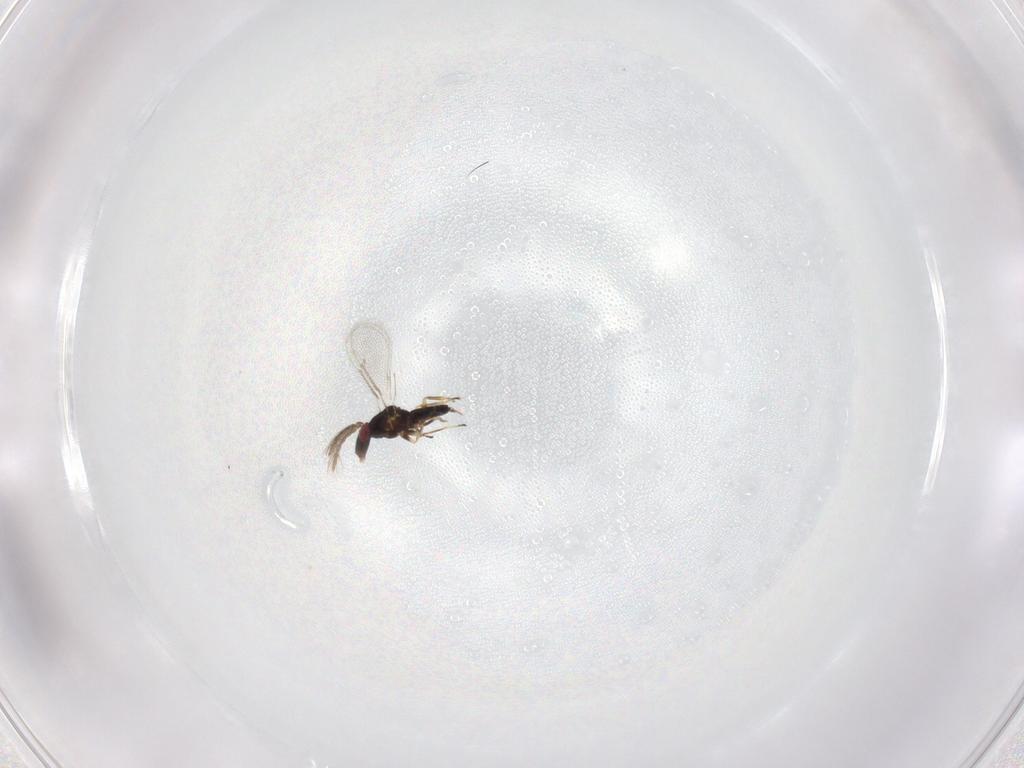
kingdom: Animalia
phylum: Arthropoda
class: Insecta
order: Hymenoptera
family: Eulophidae
